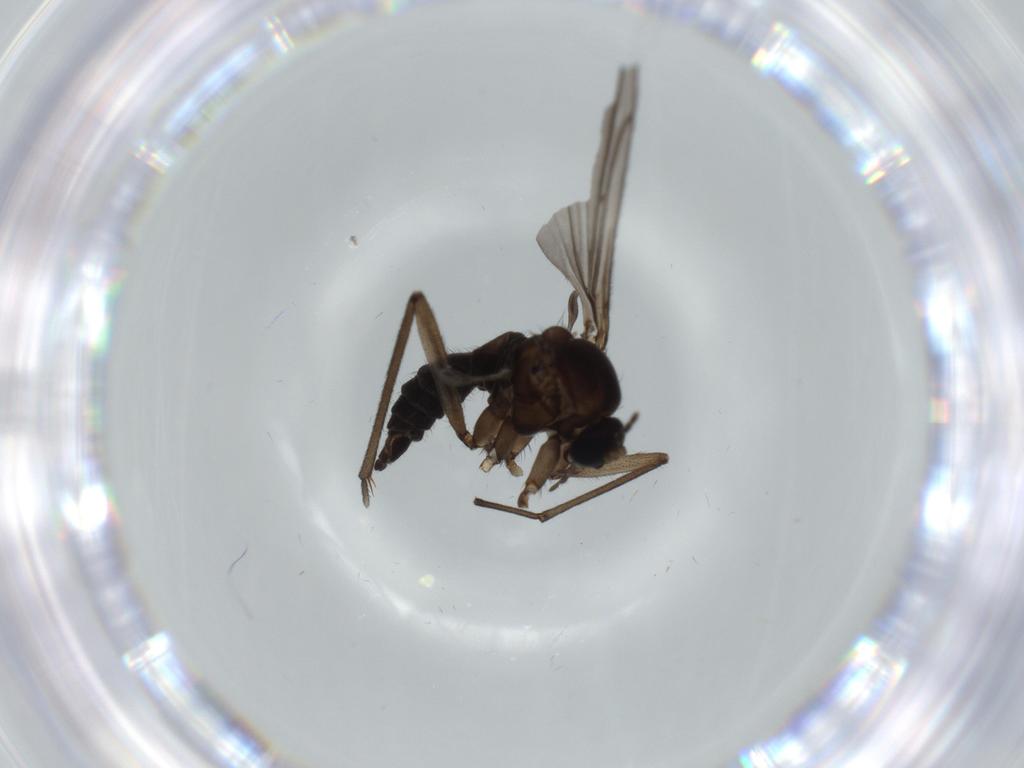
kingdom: Animalia
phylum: Arthropoda
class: Insecta
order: Diptera
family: Sciaridae
